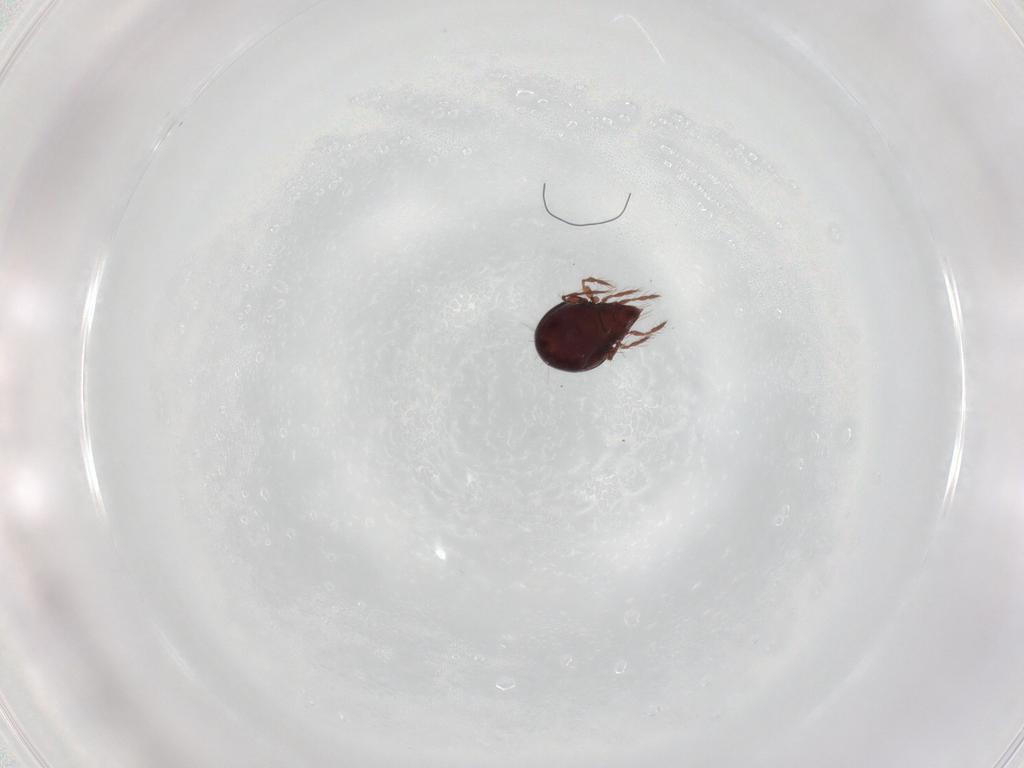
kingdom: Animalia
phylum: Arthropoda
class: Arachnida
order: Sarcoptiformes
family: Ceratoppiidae
